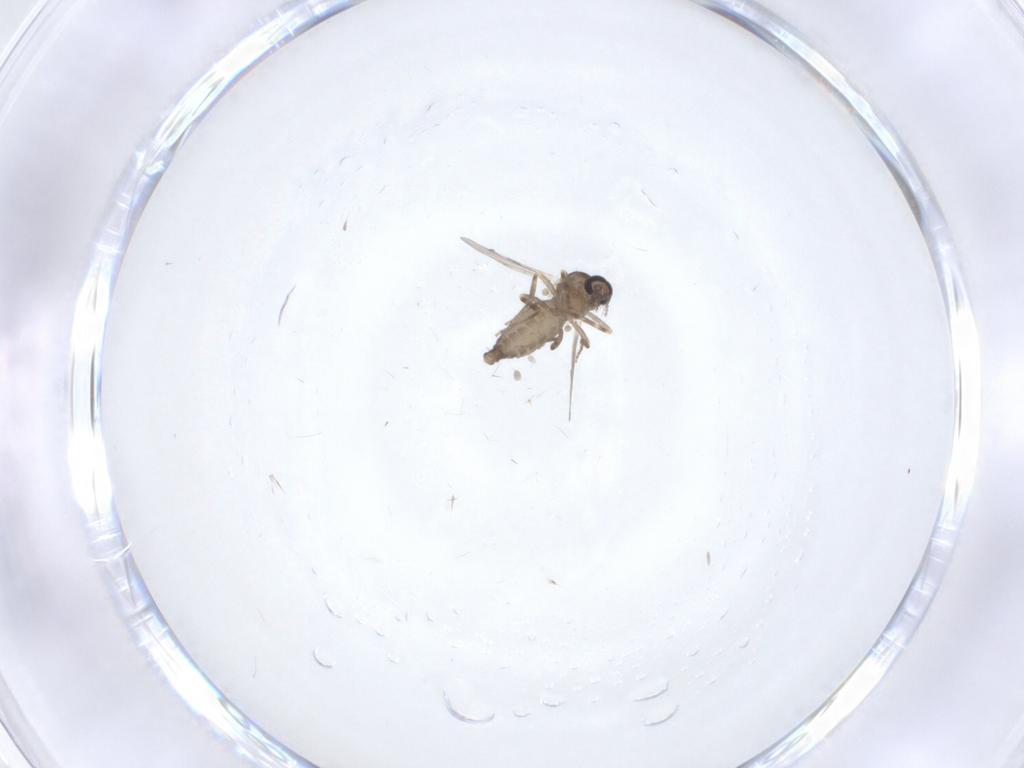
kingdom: Animalia
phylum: Arthropoda
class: Insecta
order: Diptera
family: Ceratopogonidae
